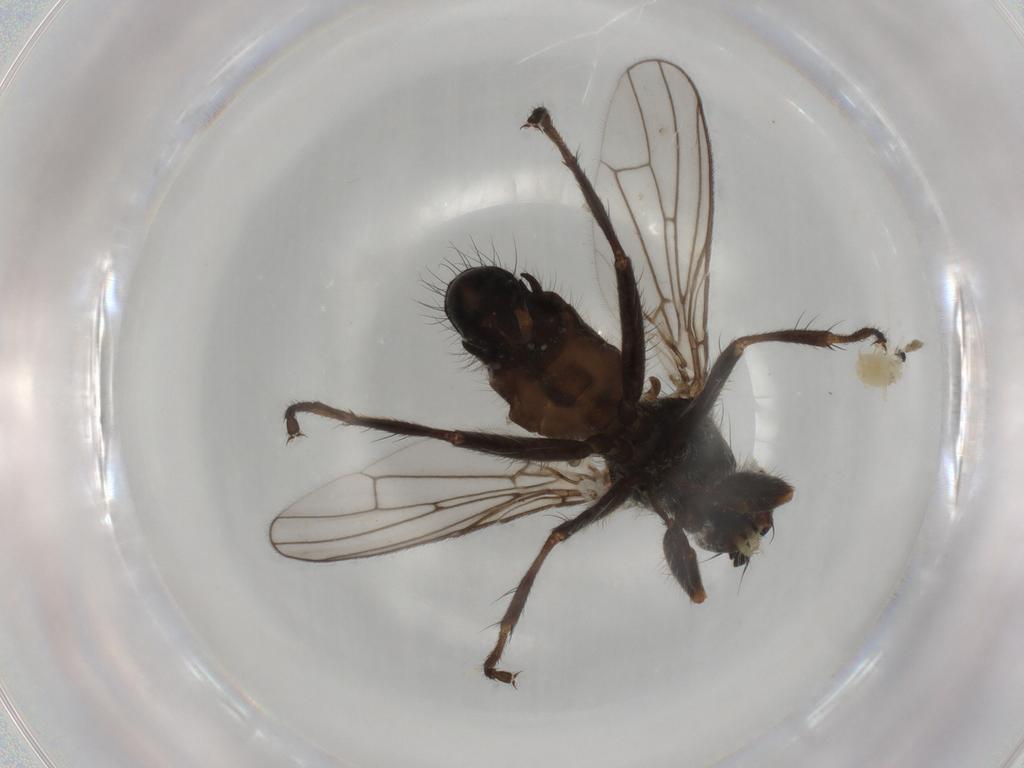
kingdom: Animalia
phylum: Arthropoda
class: Insecta
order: Diptera
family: Scathophagidae
